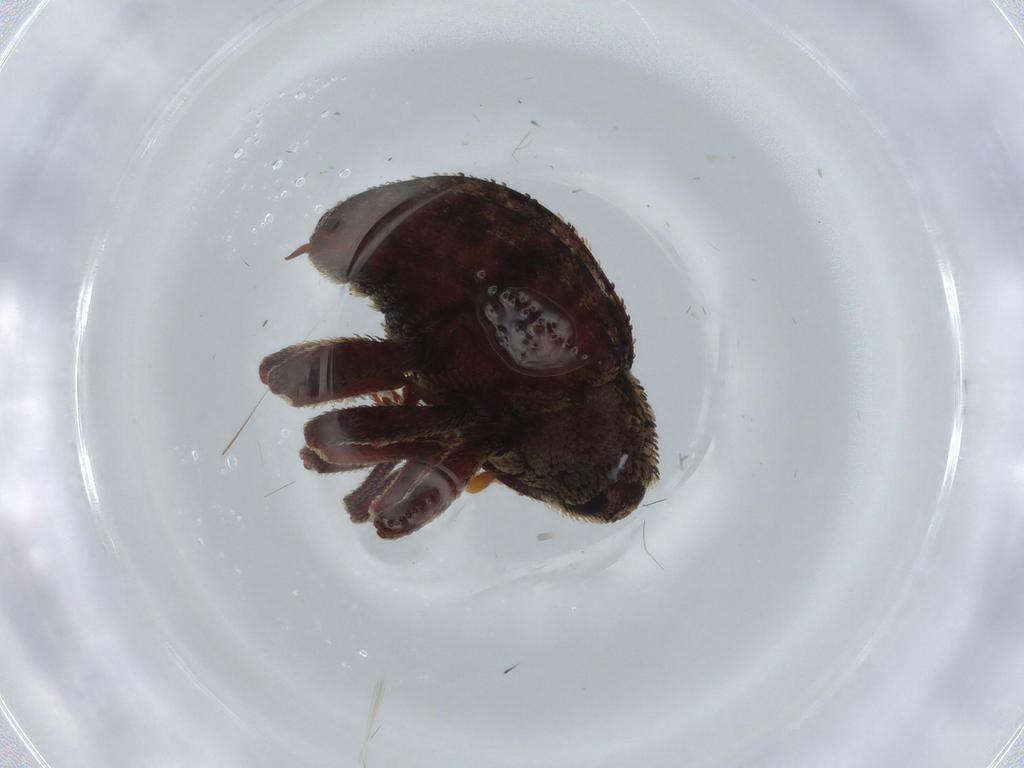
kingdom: Animalia
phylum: Arthropoda
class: Insecta
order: Coleoptera
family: Curculionidae
